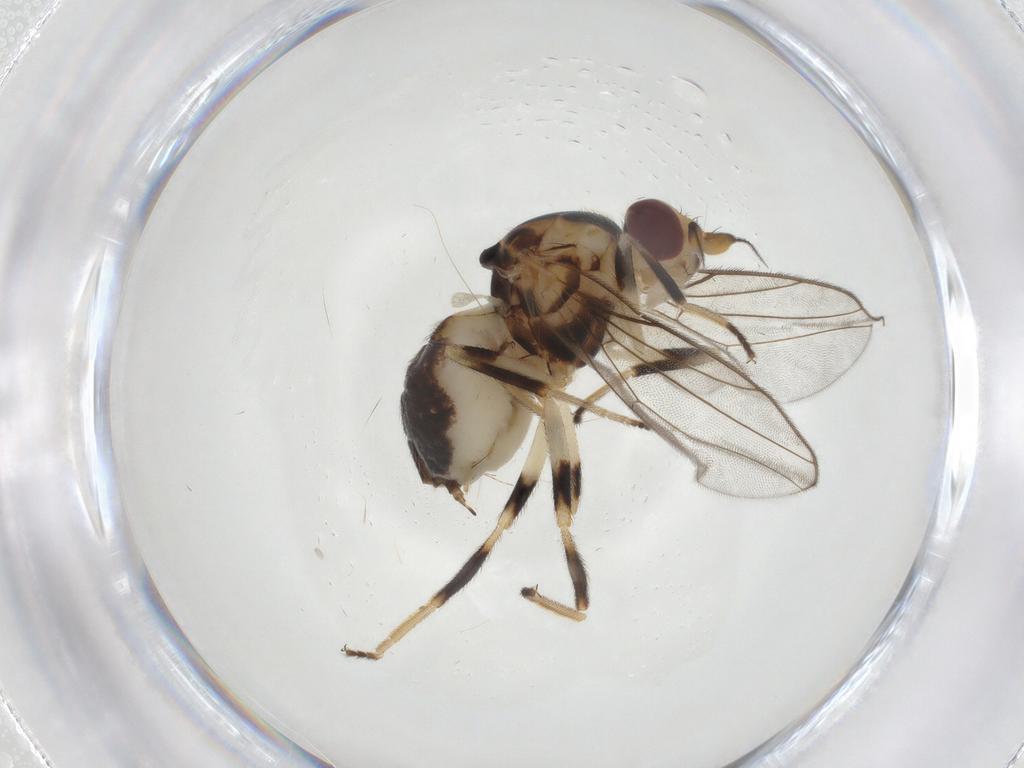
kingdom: Animalia
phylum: Arthropoda
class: Insecta
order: Diptera
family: Chloropidae
